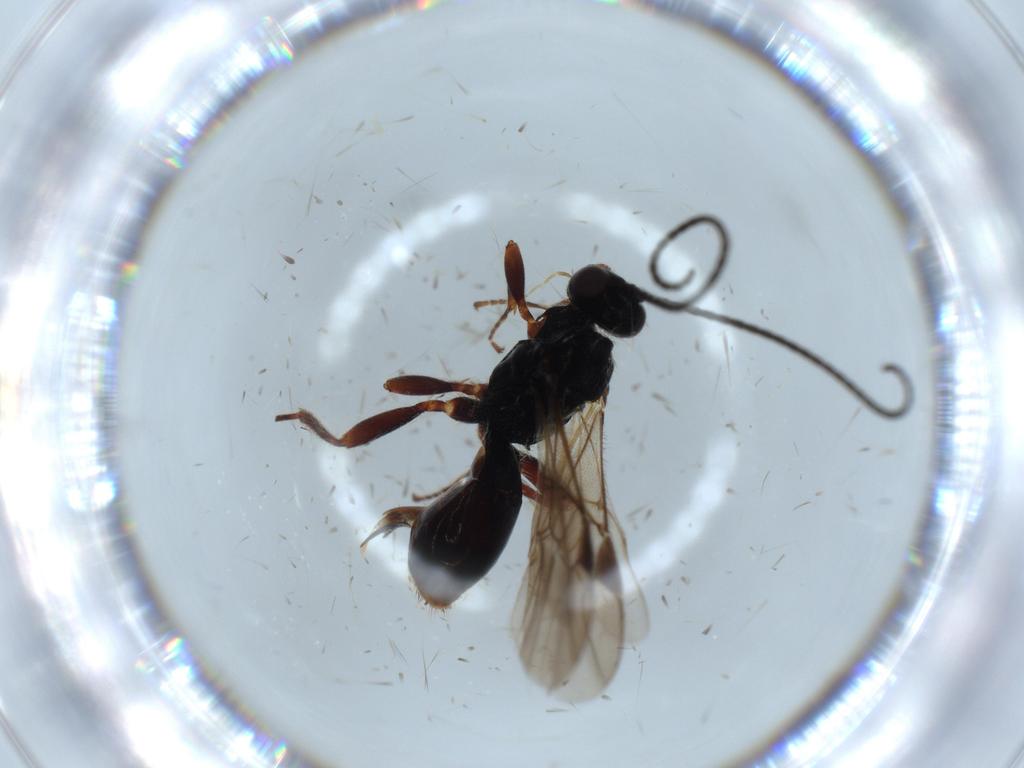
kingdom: Animalia
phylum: Arthropoda
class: Insecta
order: Hymenoptera
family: Braconidae
